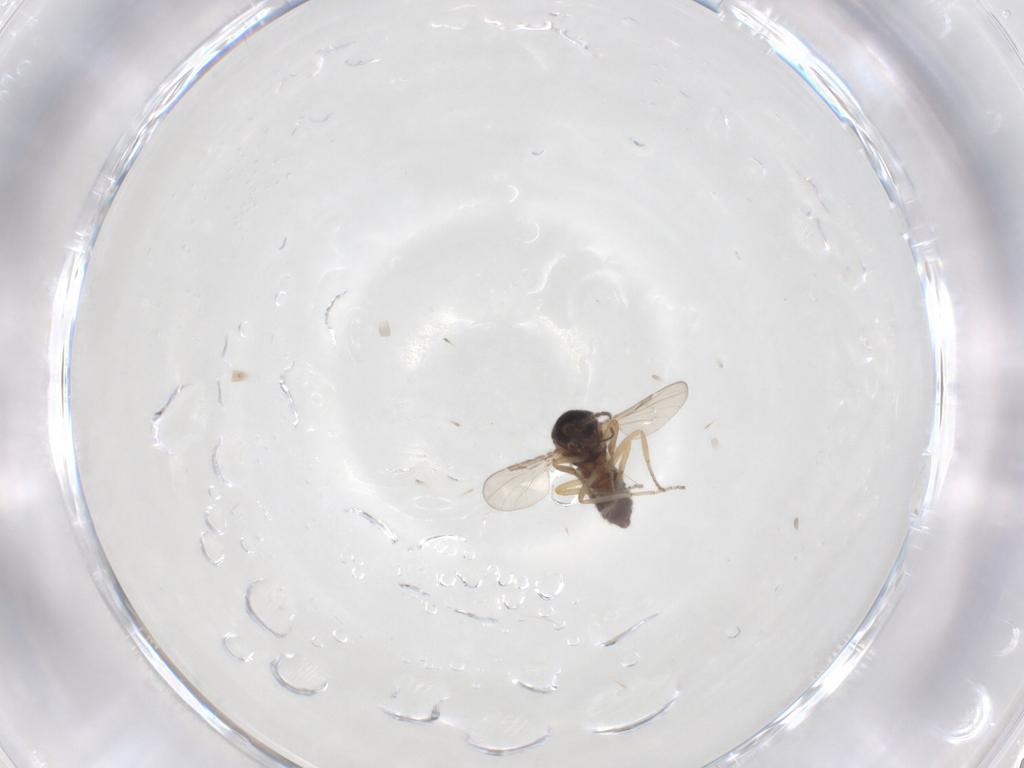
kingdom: Animalia
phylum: Arthropoda
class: Insecta
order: Diptera
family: Ceratopogonidae
